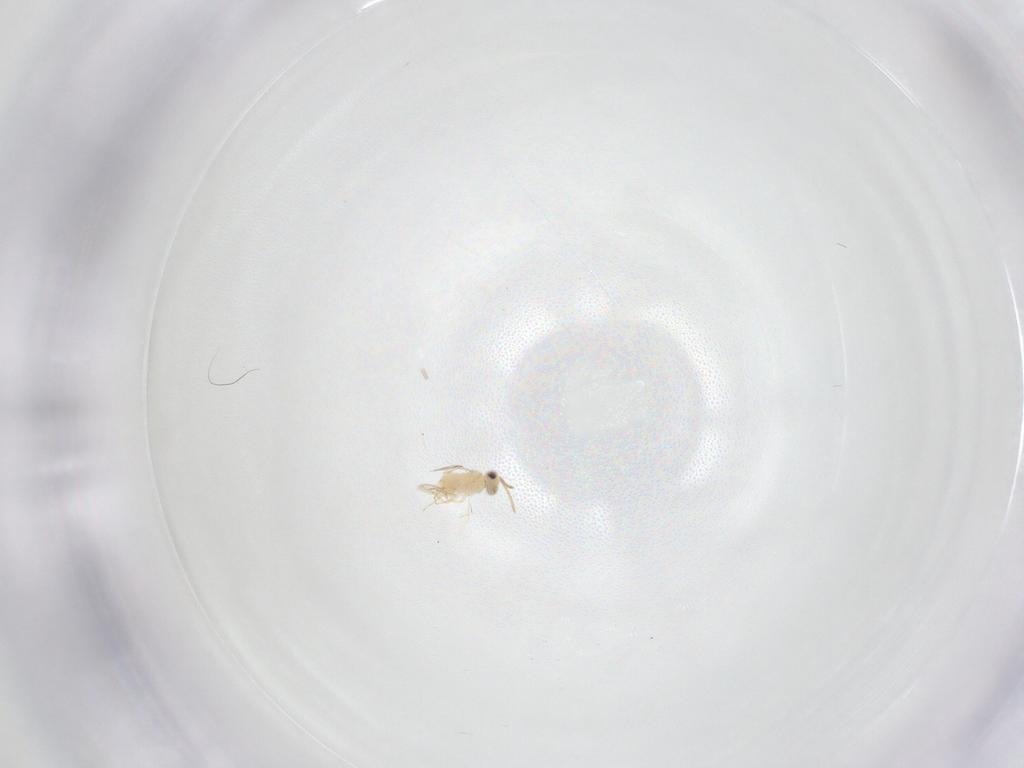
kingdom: Animalia
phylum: Arthropoda
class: Insecta
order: Hymenoptera
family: Aphelinidae
